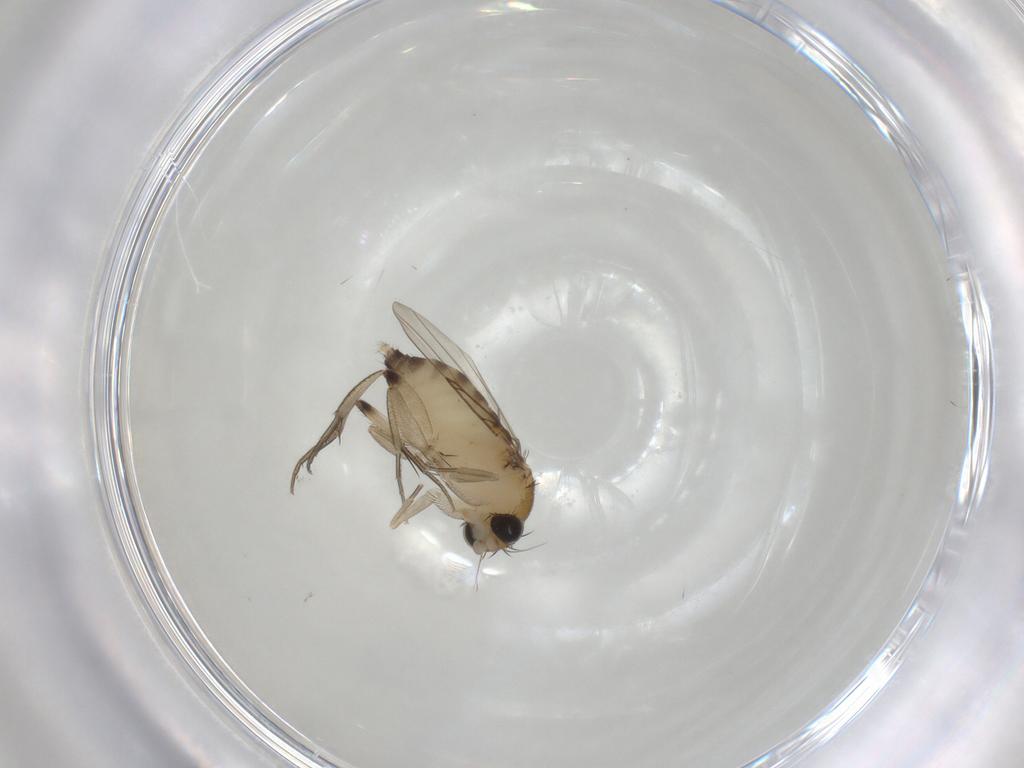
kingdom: Animalia
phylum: Arthropoda
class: Insecta
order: Diptera
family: Phoridae
